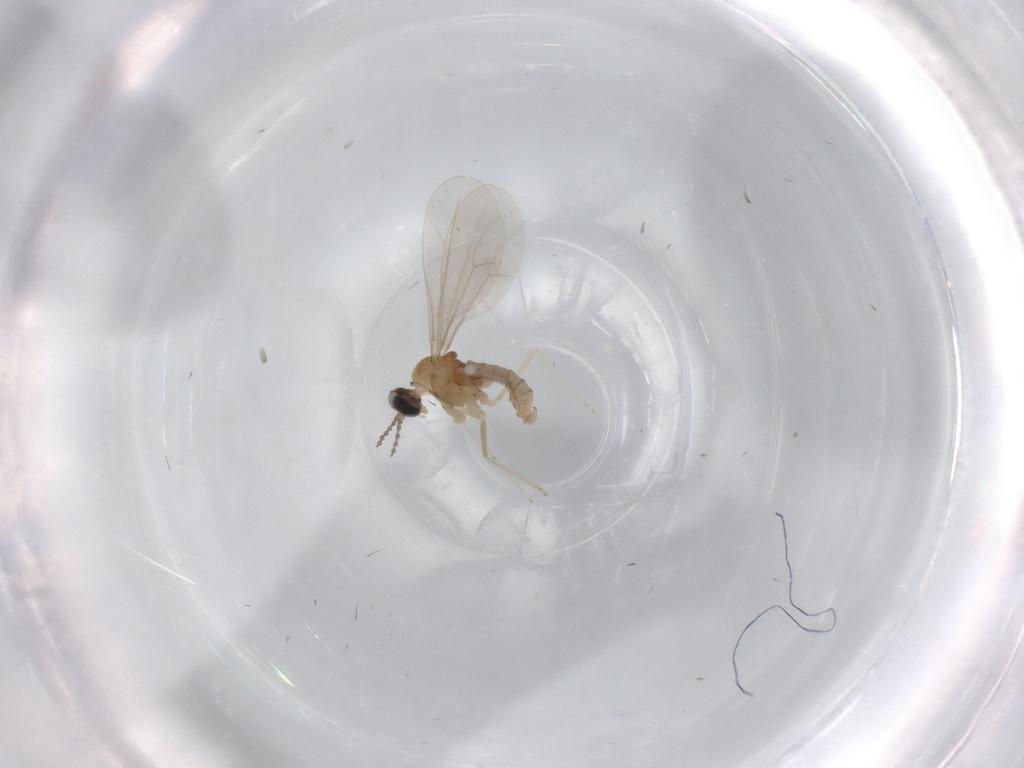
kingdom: Animalia
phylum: Arthropoda
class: Insecta
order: Diptera
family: Cecidomyiidae
